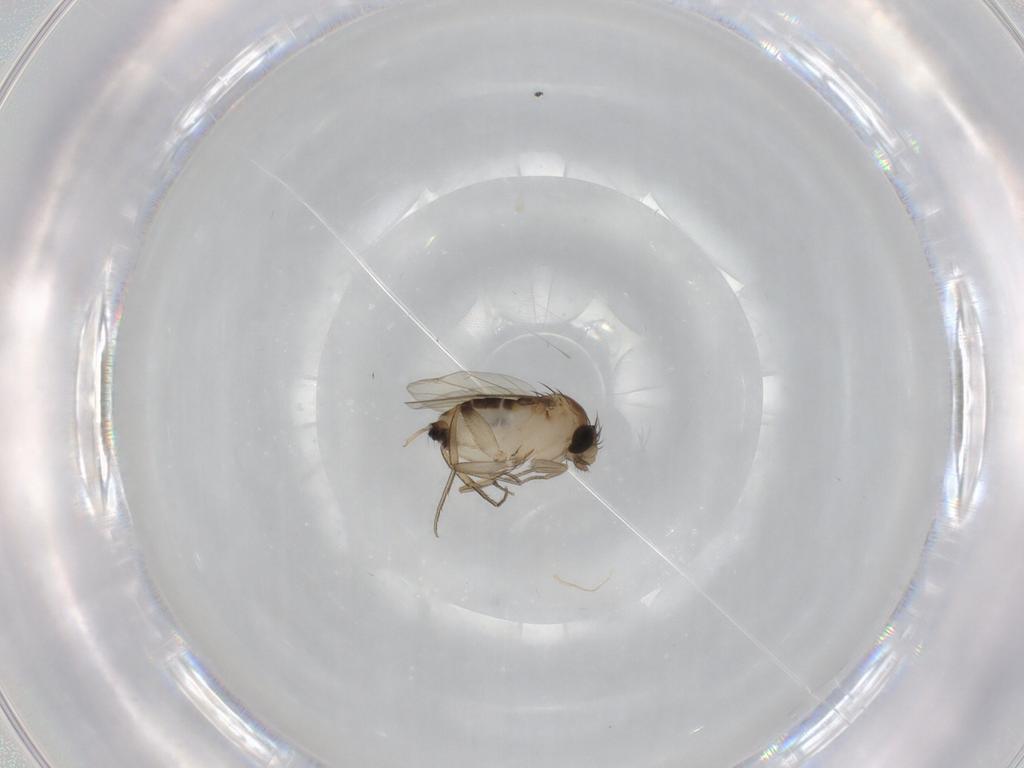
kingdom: Animalia
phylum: Arthropoda
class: Insecta
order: Diptera
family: Phoridae
